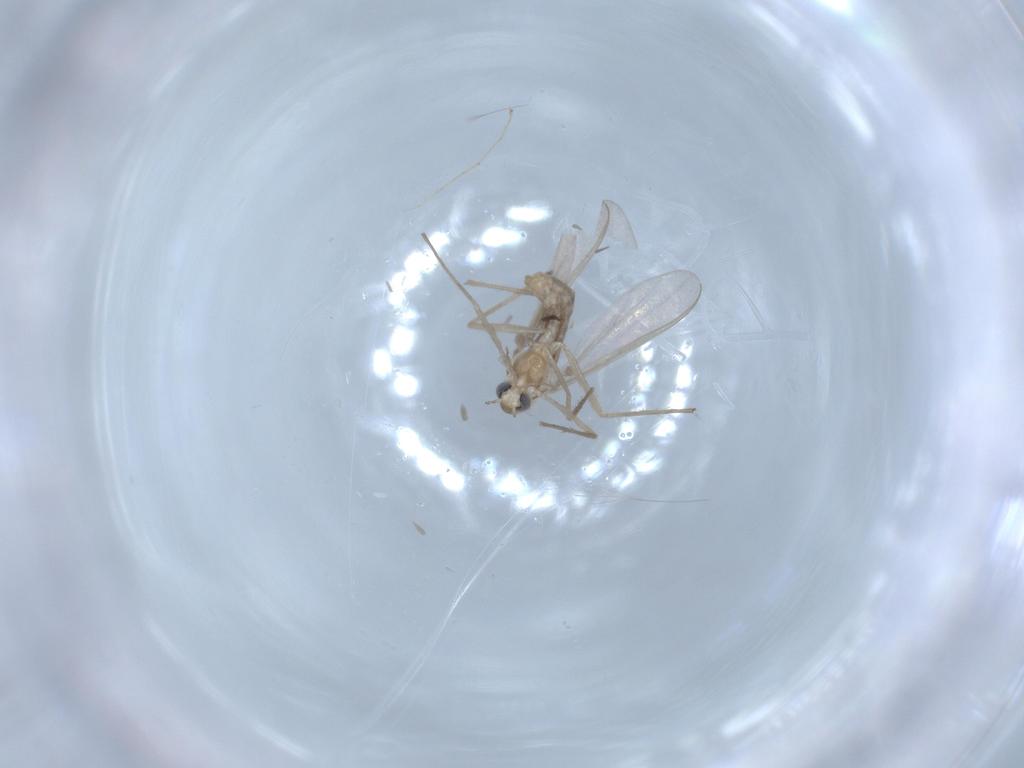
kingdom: Animalia
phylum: Arthropoda
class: Insecta
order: Diptera
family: Chironomidae
